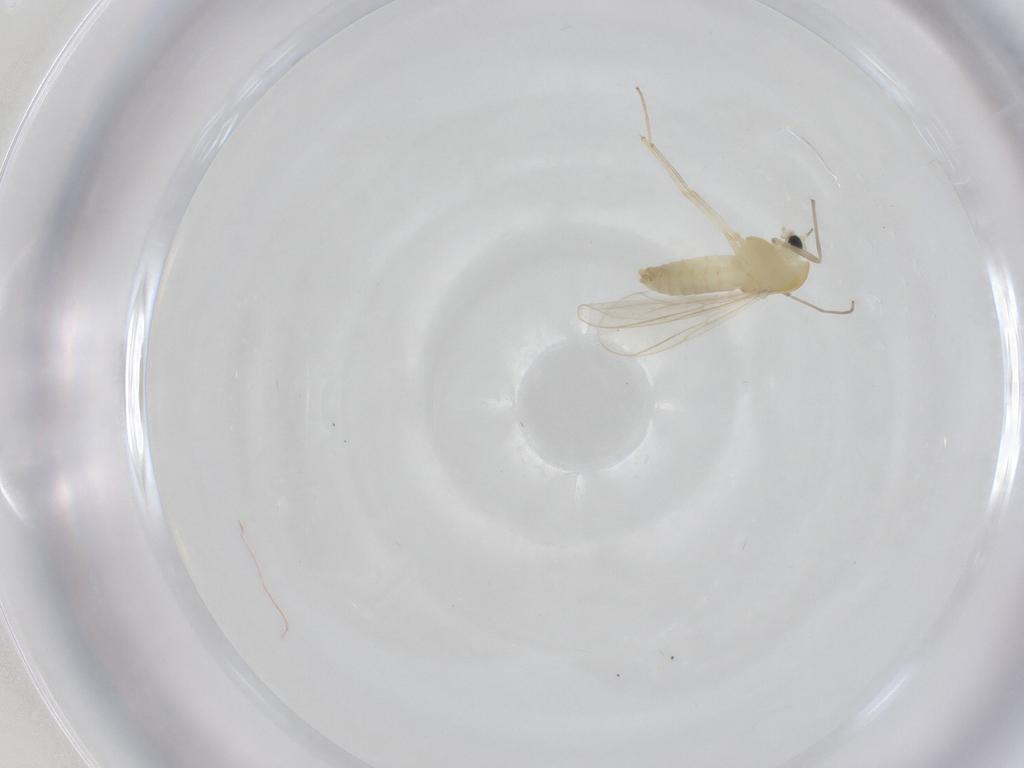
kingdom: Animalia
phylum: Arthropoda
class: Insecta
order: Diptera
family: Chironomidae
